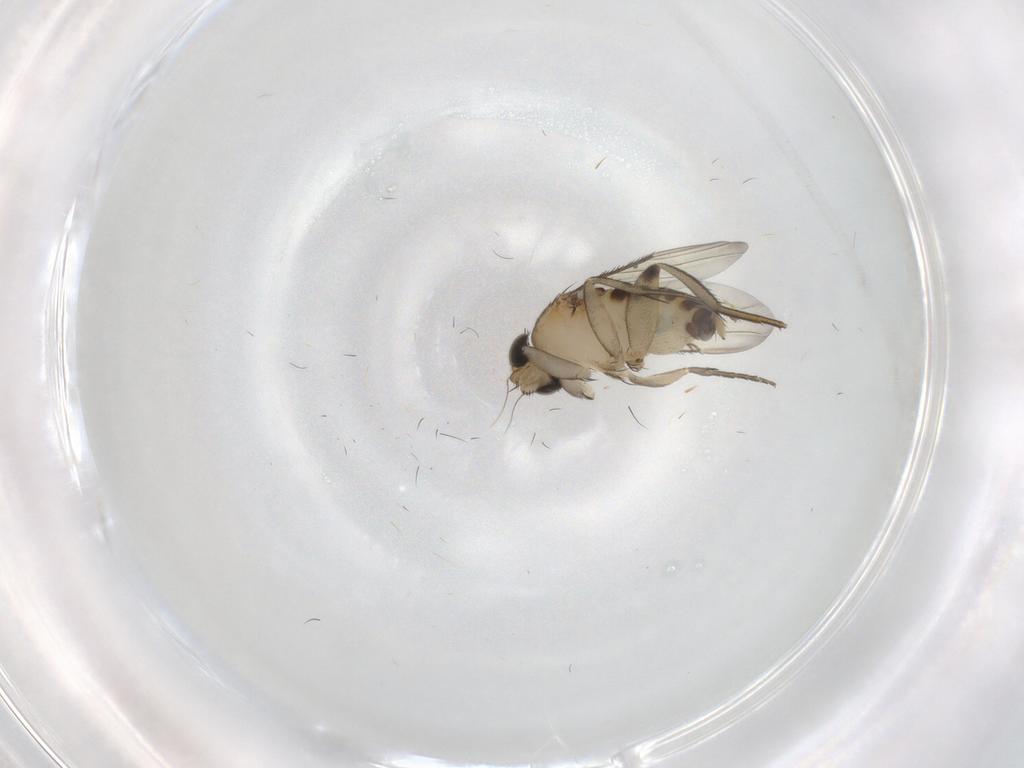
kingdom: Animalia
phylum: Arthropoda
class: Insecta
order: Diptera
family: Phoridae
